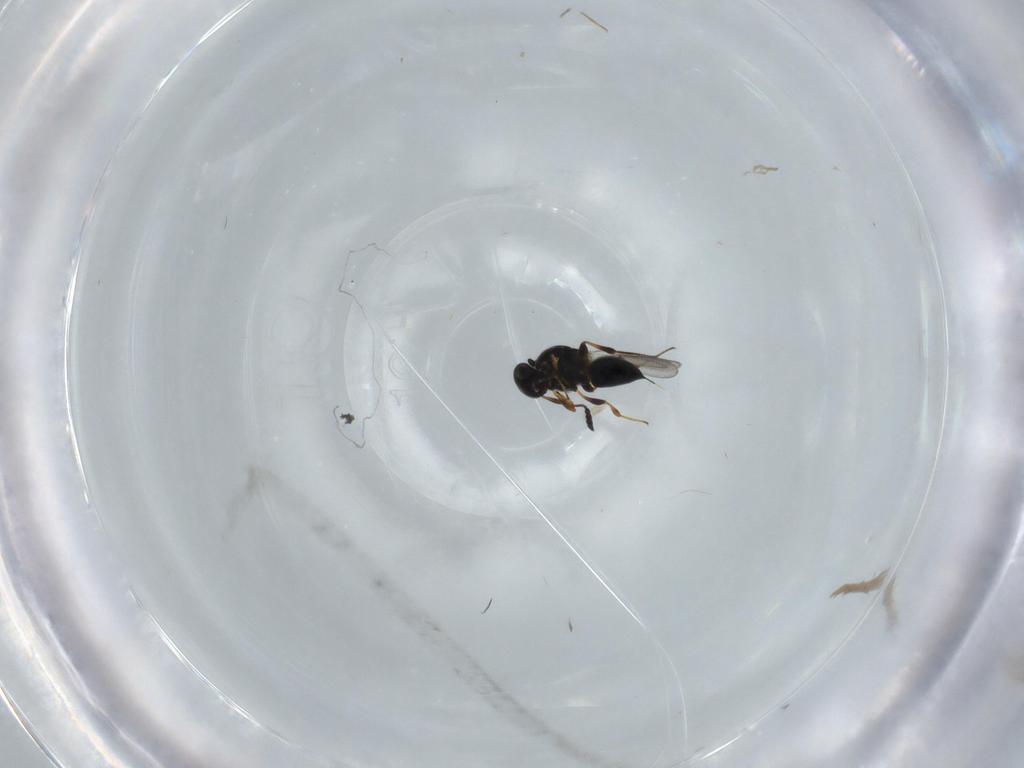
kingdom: Animalia
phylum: Arthropoda
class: Insecta
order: Hymenoptera
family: Platygastridae
